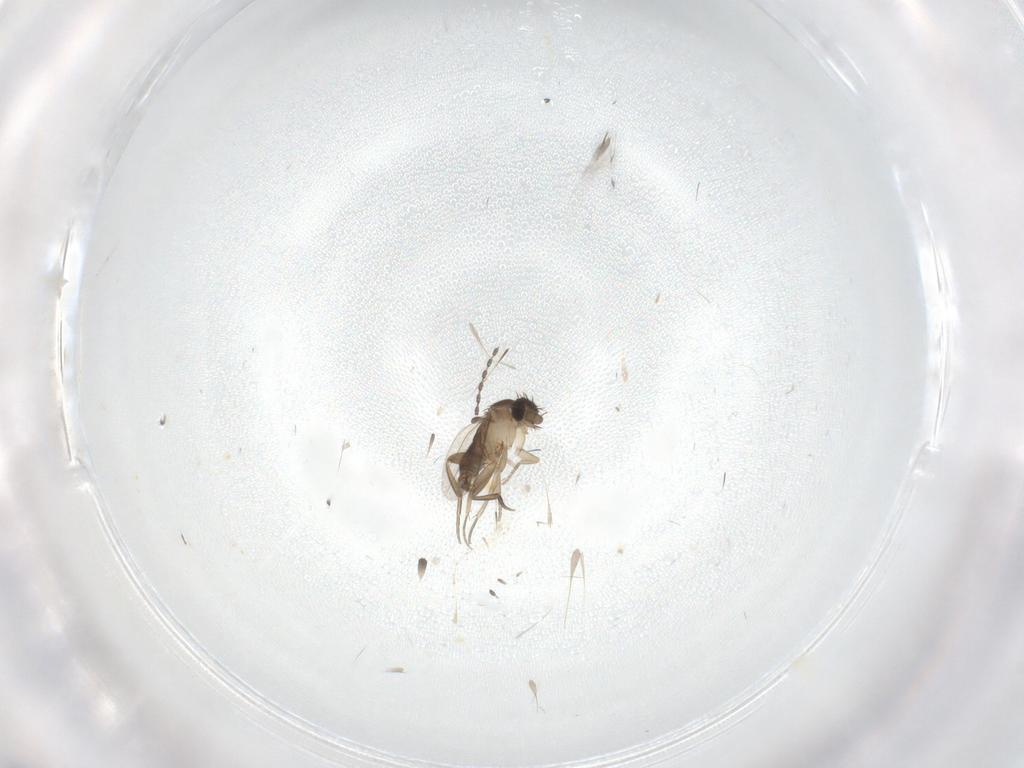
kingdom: Animalia
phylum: Arthropoda
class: Insecta
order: Diptera
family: Phoridae
